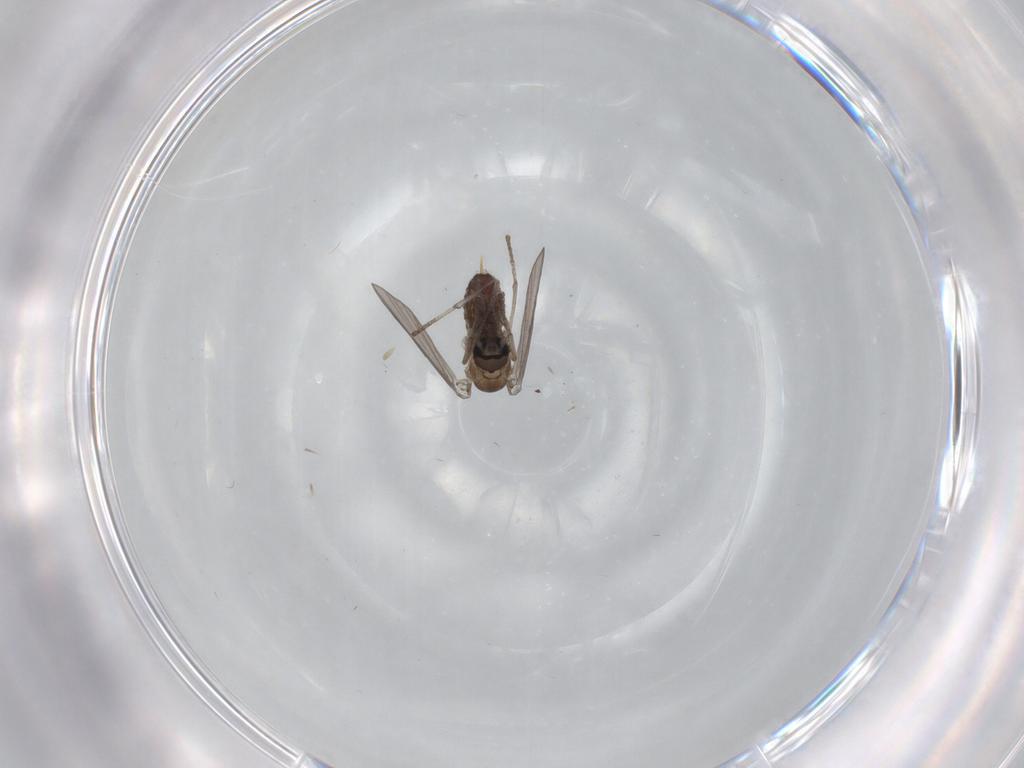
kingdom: Animalia
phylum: Arthropoda
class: Insecta
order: Diptera
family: Psychodidae
